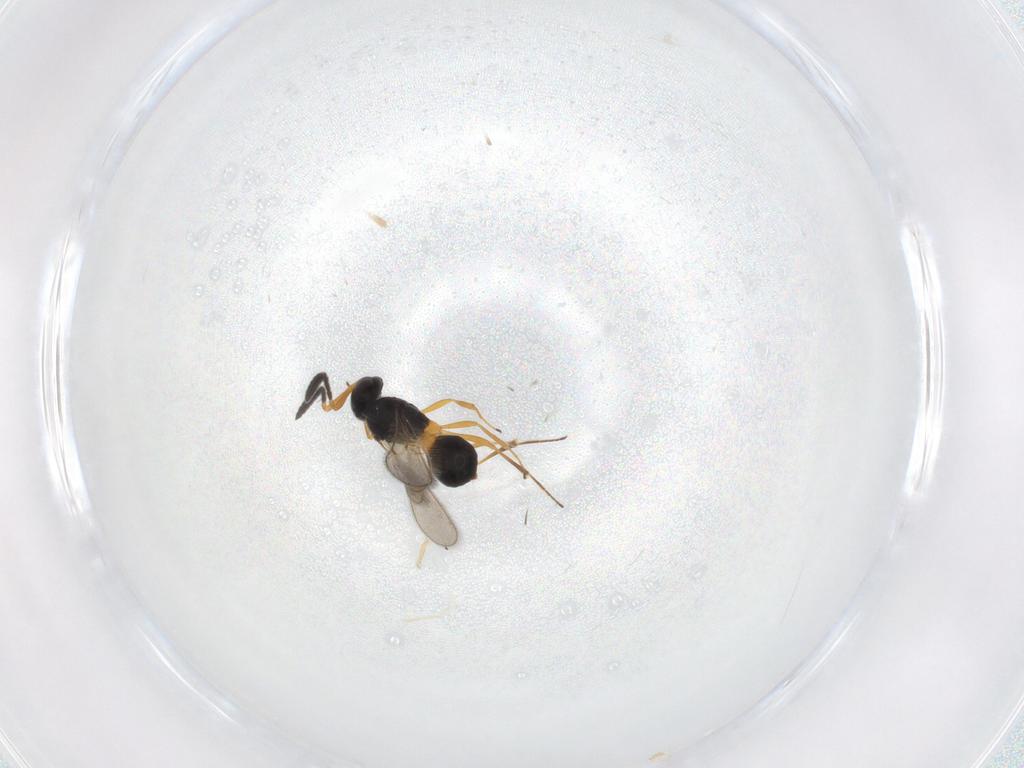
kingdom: Animalia
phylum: Arthropoda
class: Insecta
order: Hymenoptera
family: Scelionidae
